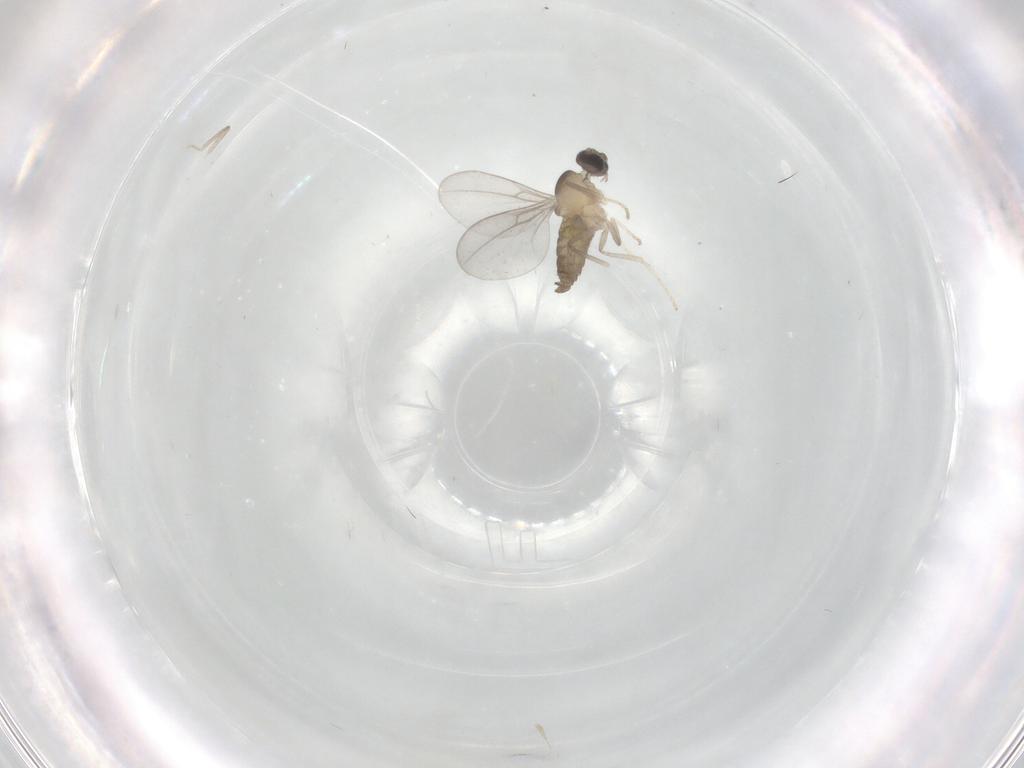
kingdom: Animalia
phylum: Arthropoda
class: Insecta
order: Diptera
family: Cecidomyiidae
